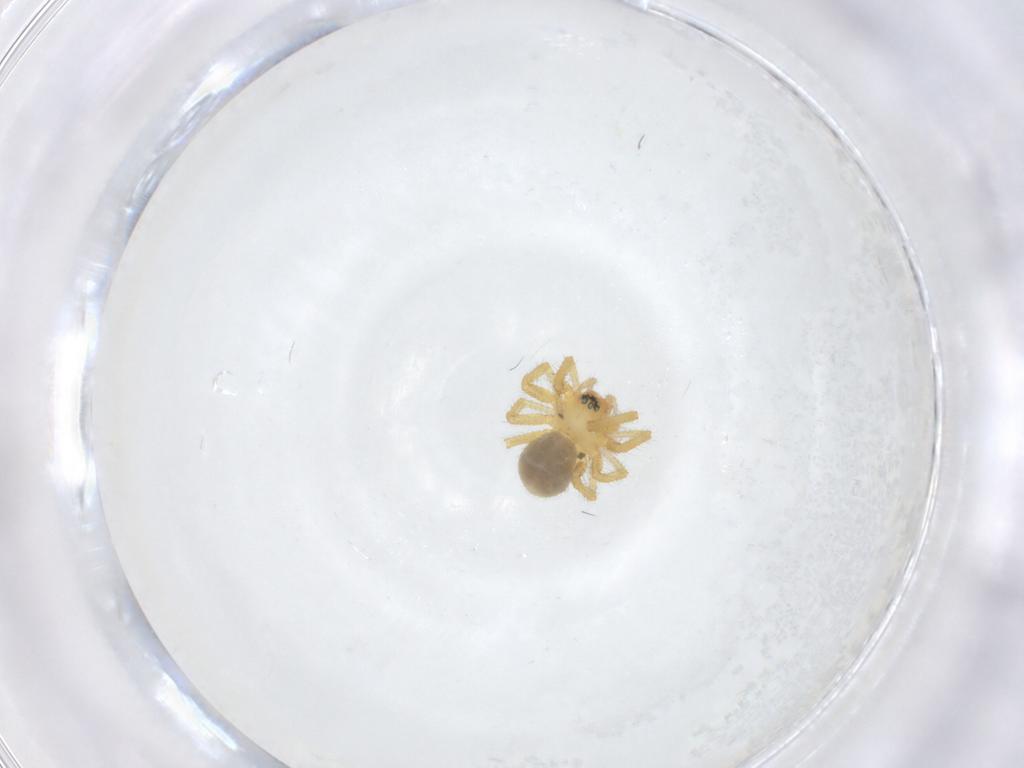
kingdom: Animalia
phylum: Arthropoda
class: Arachnida
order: Araneae
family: Linyphiidae
